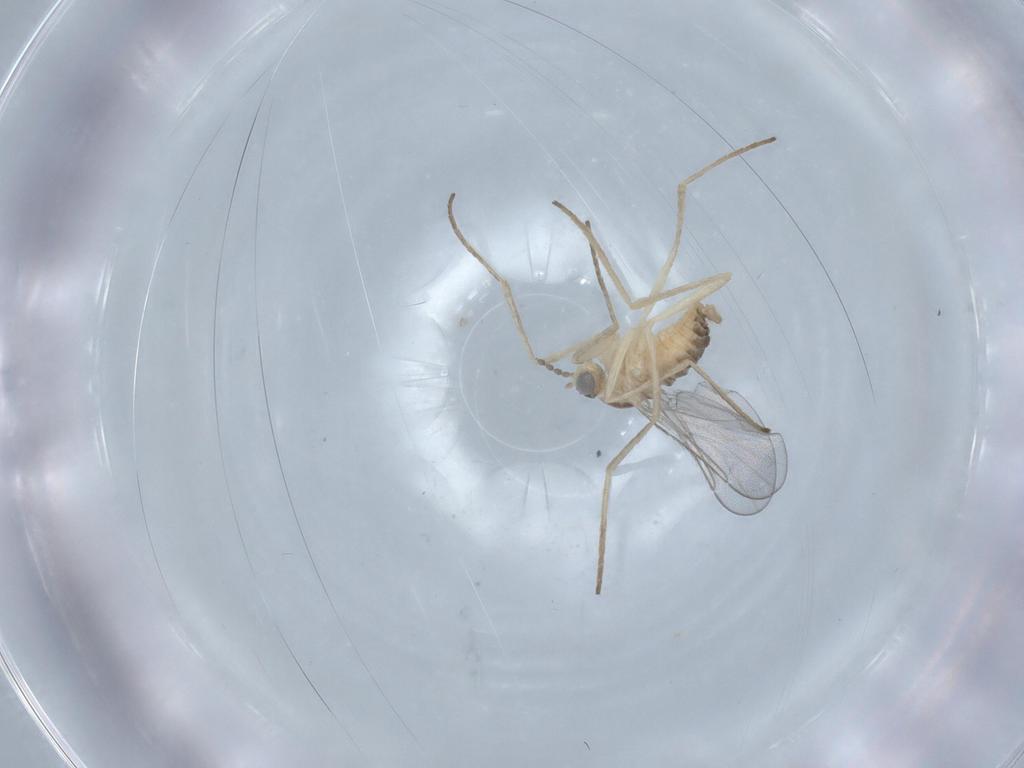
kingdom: Animalia
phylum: Arthropoda
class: Insecta
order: Diptera
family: Cecidomyiidae
